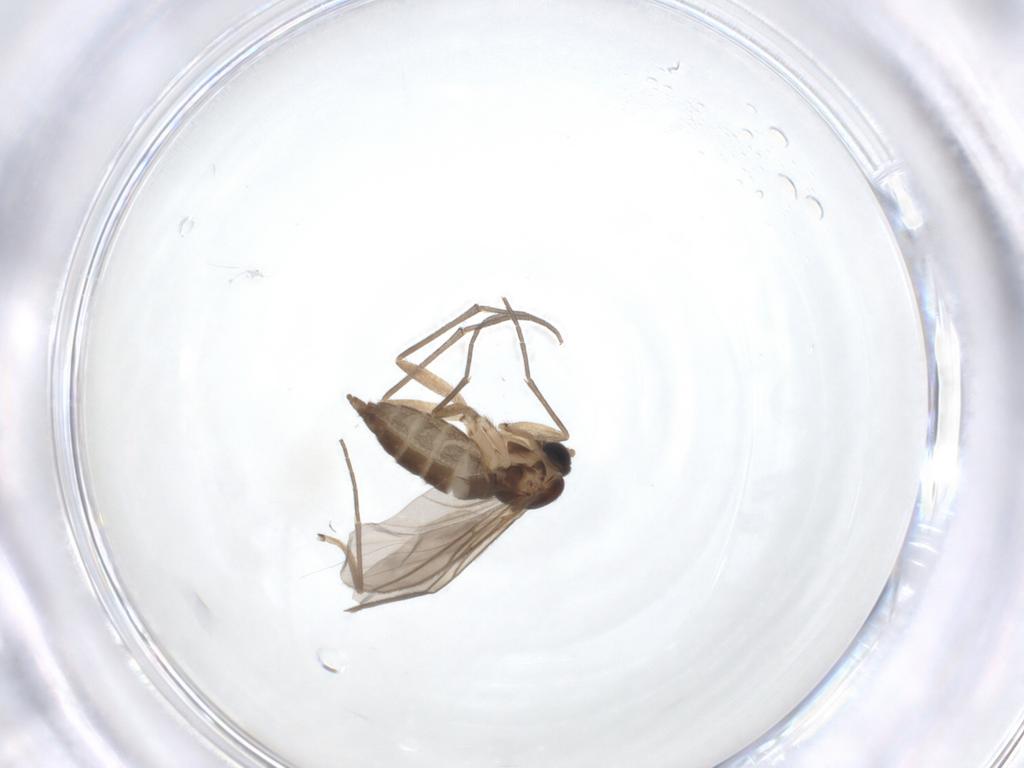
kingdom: Animalia
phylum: Arthropoda
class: Insecta
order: Diptera
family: Sciaridae
